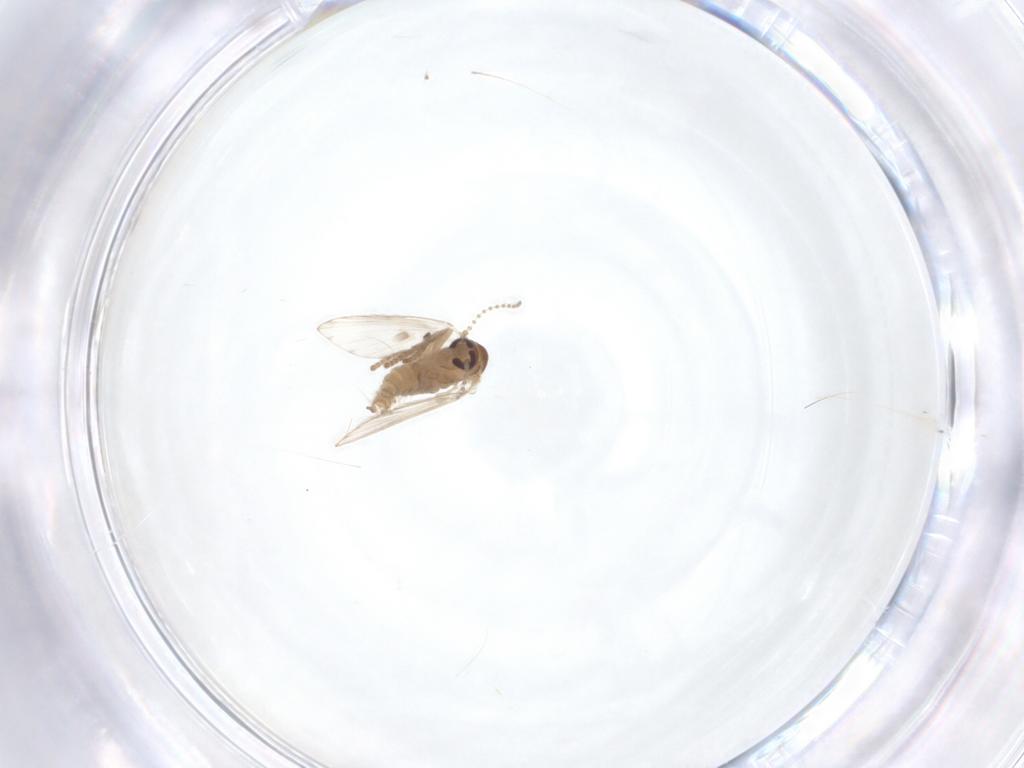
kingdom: Animalia
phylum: Arthropoda
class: Insecta
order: Diptera
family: Psychodidae
